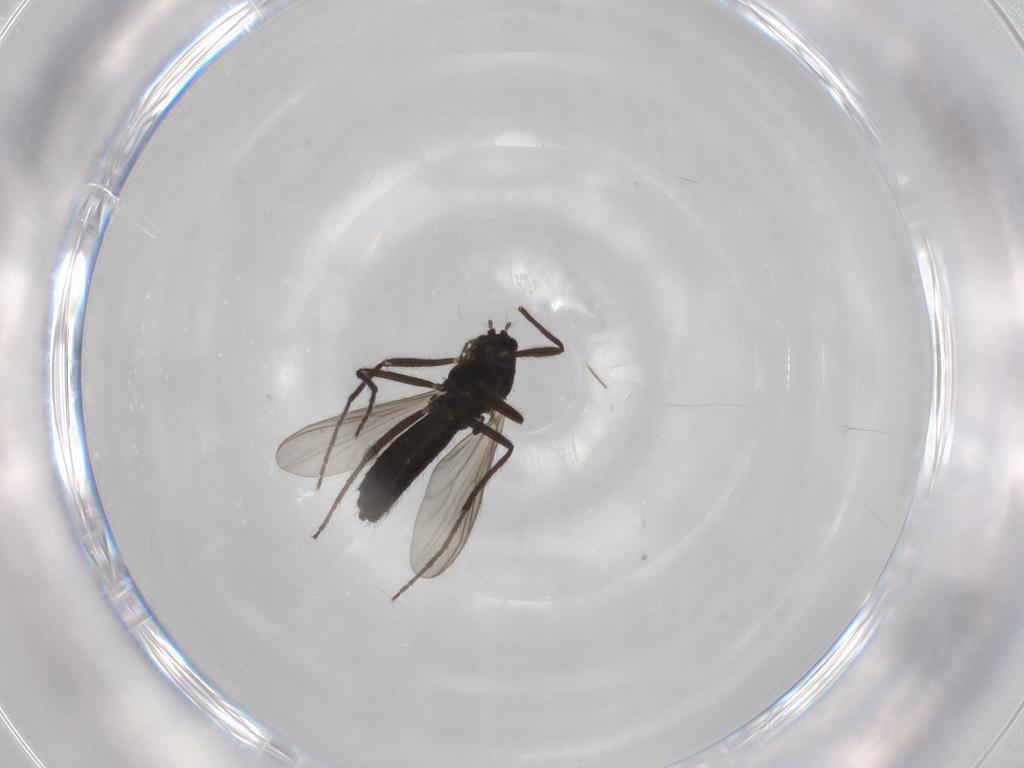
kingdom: Animalia
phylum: Arthropoda
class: Insecta
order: Diptera
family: Chironomidae
